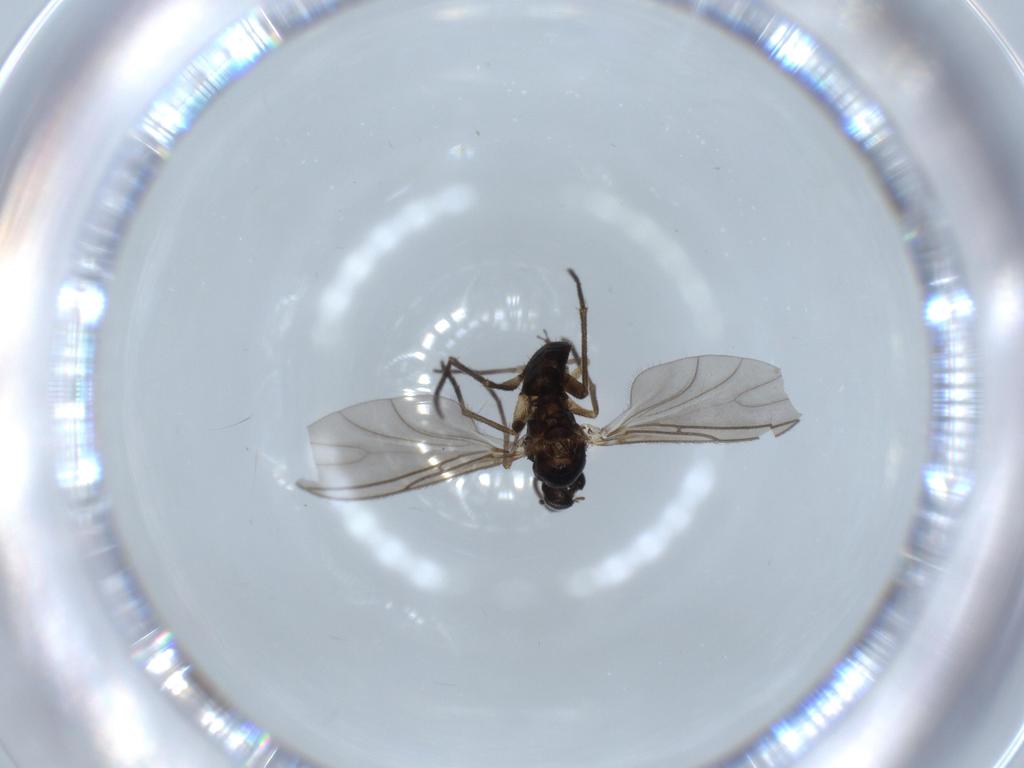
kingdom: Animalia
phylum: Arthropoda
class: Insecta
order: Diptera
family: Sciaridae
